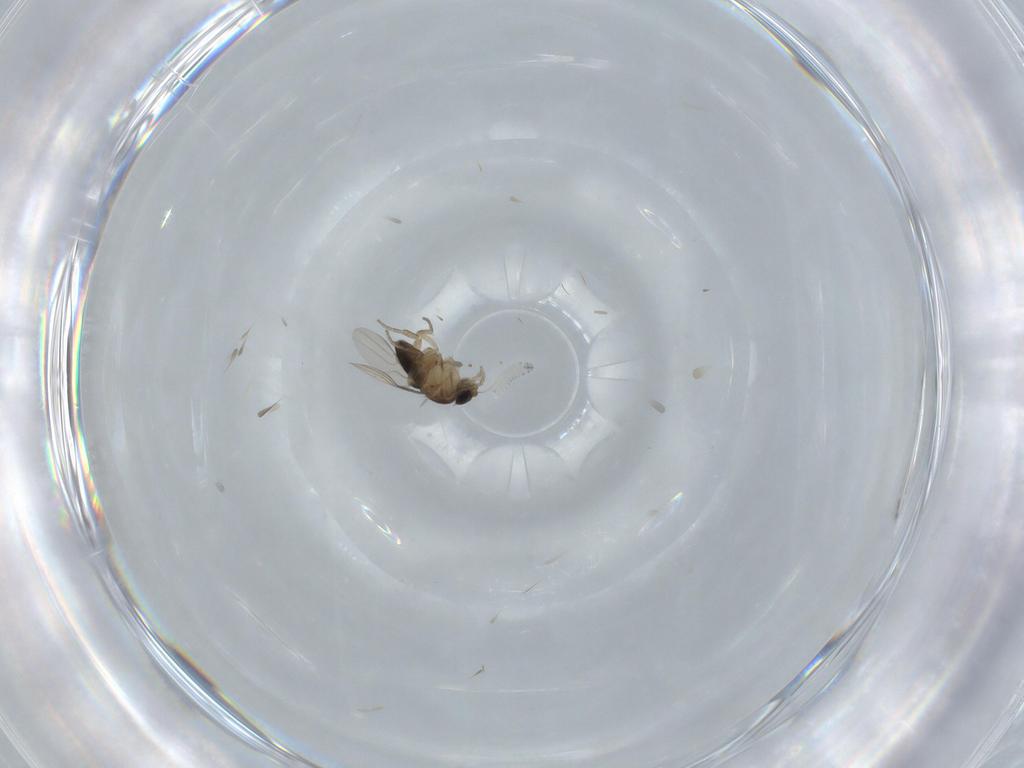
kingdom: Animalia
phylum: Arthropoda
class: Insecta
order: Diptera
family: Phoridae
